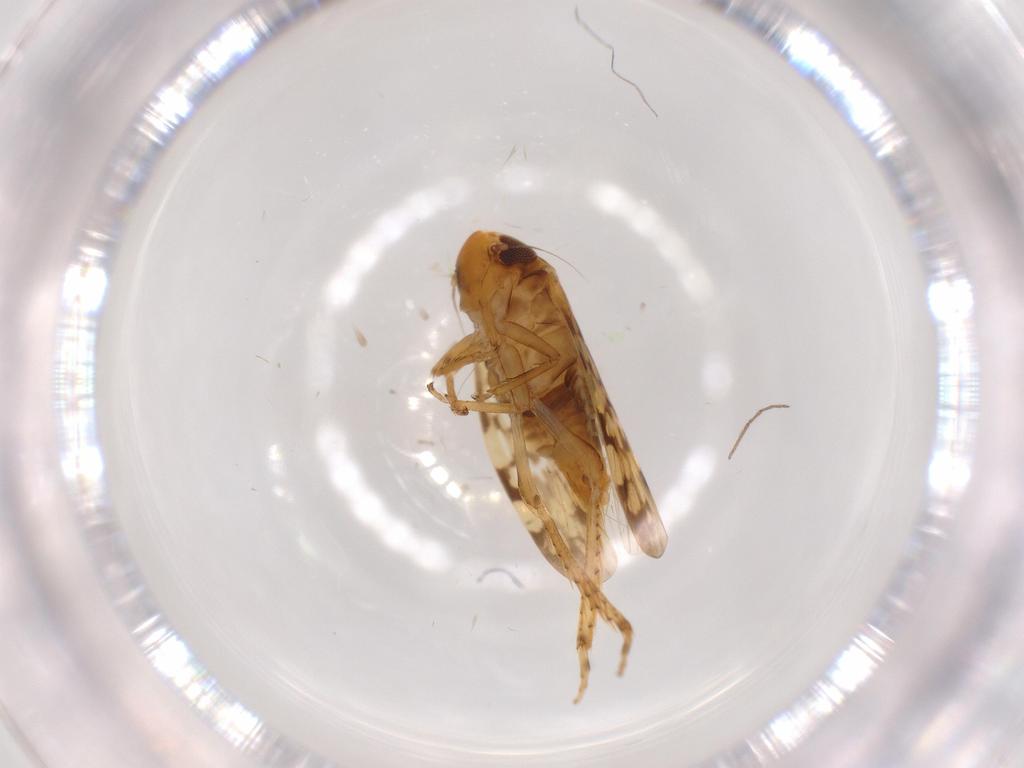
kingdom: Animalia
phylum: Arthropoda
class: Insecta
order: Hemiptera
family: Cicadellidae
